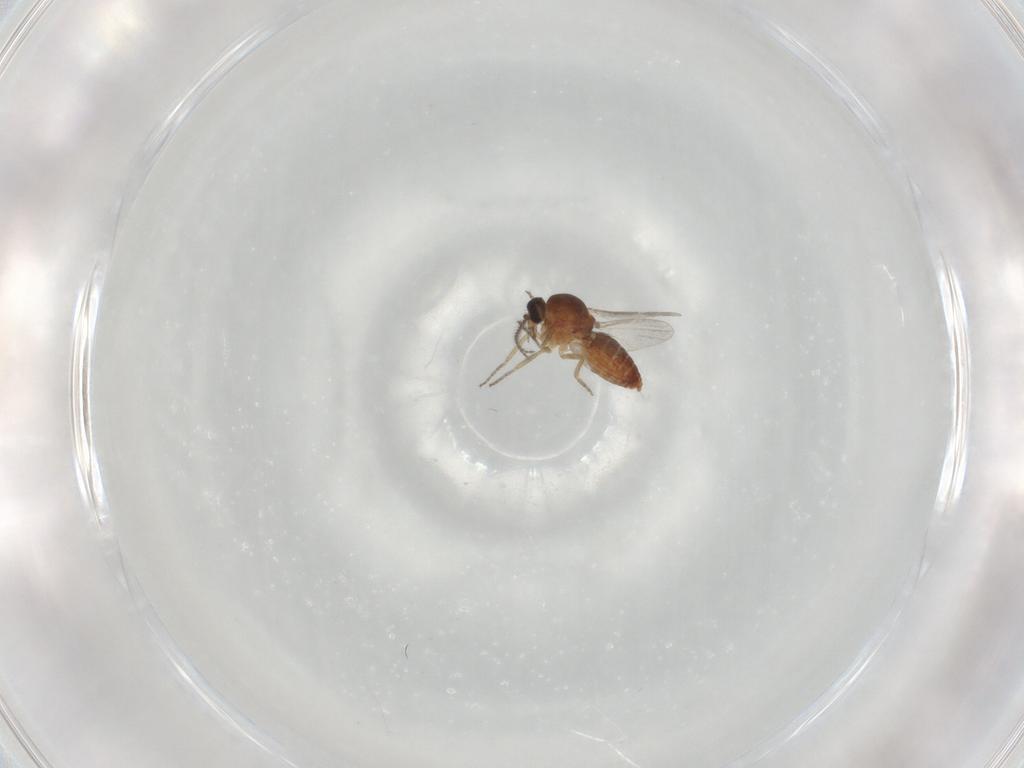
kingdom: Animalia
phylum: Arthropoda
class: Insecta
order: Diptera
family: Ceratopogonidae
